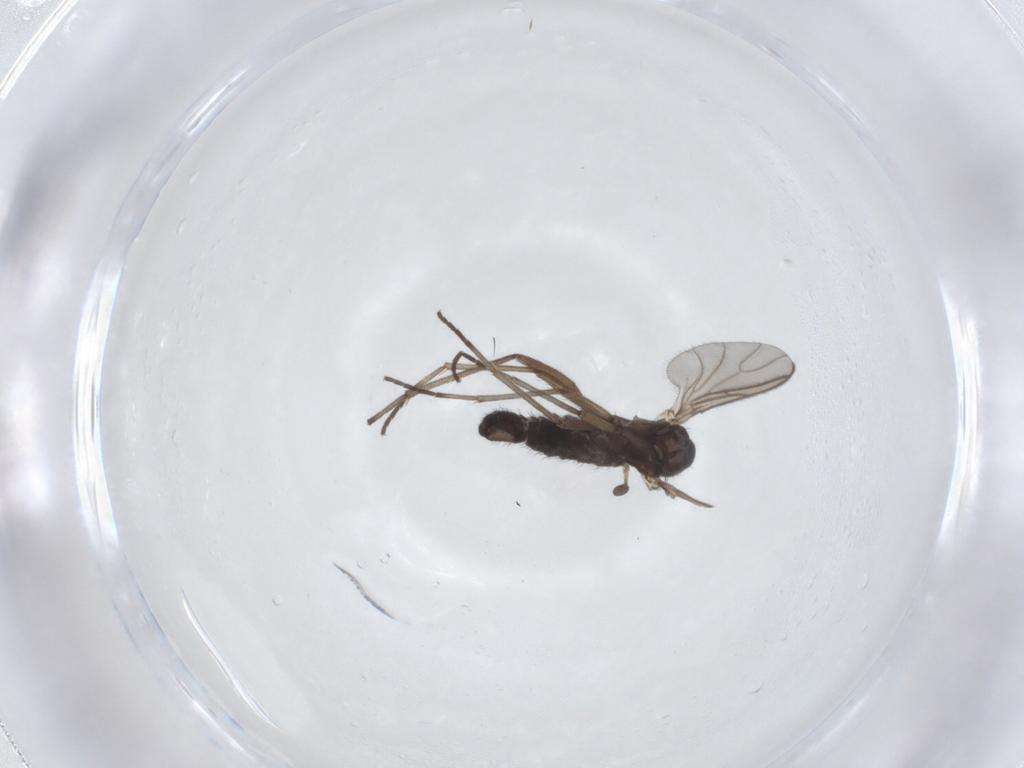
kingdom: Animalia
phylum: Arthropoda
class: Insecta
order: Diptera
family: Sciaridae
